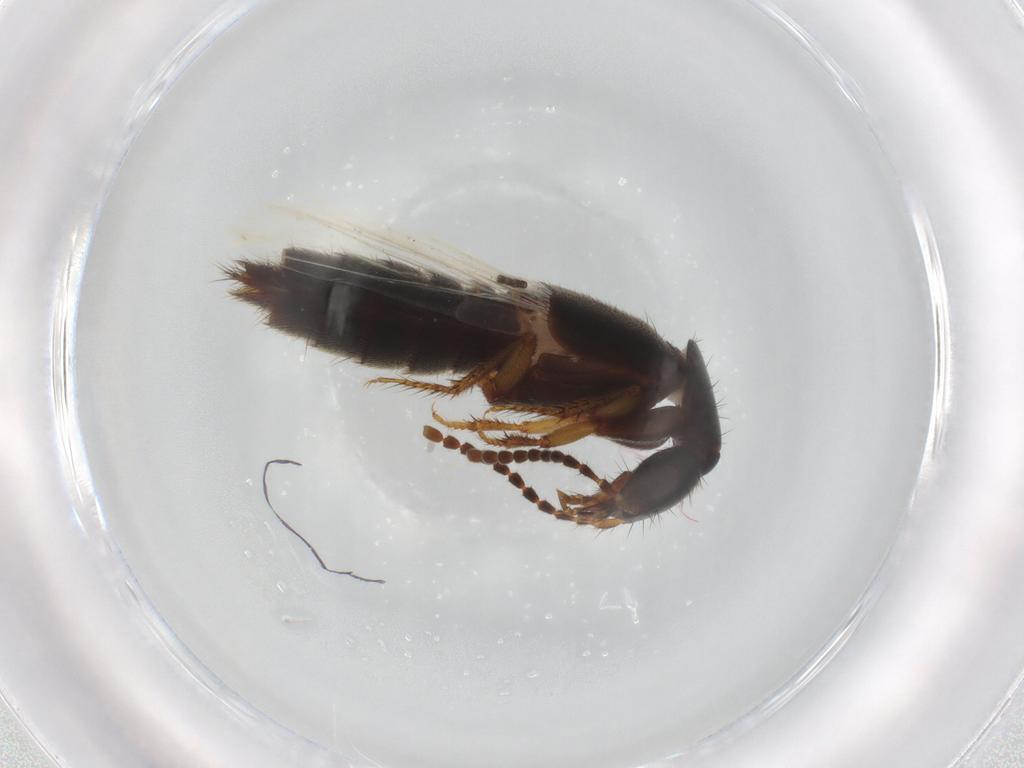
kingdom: Animalia
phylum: Arthropoda
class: Insecta
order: Coleoptera
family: Staphylinidae
